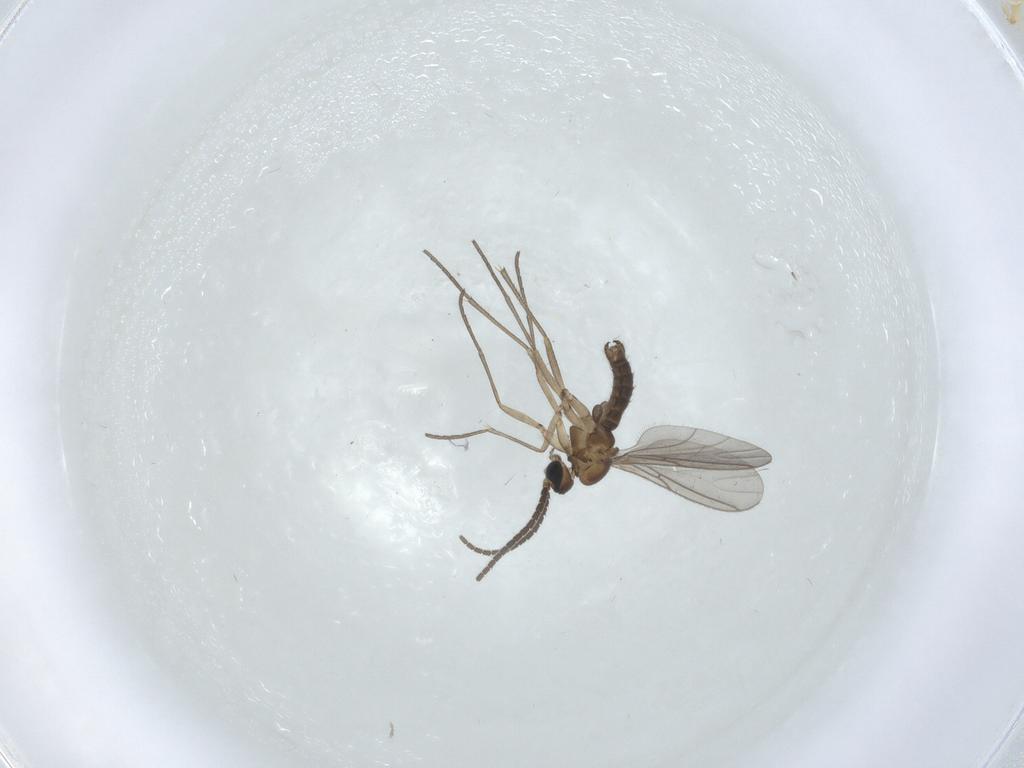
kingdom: Animalia
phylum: Arthropoda
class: Insecta
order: Diptera
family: Sciaridae
